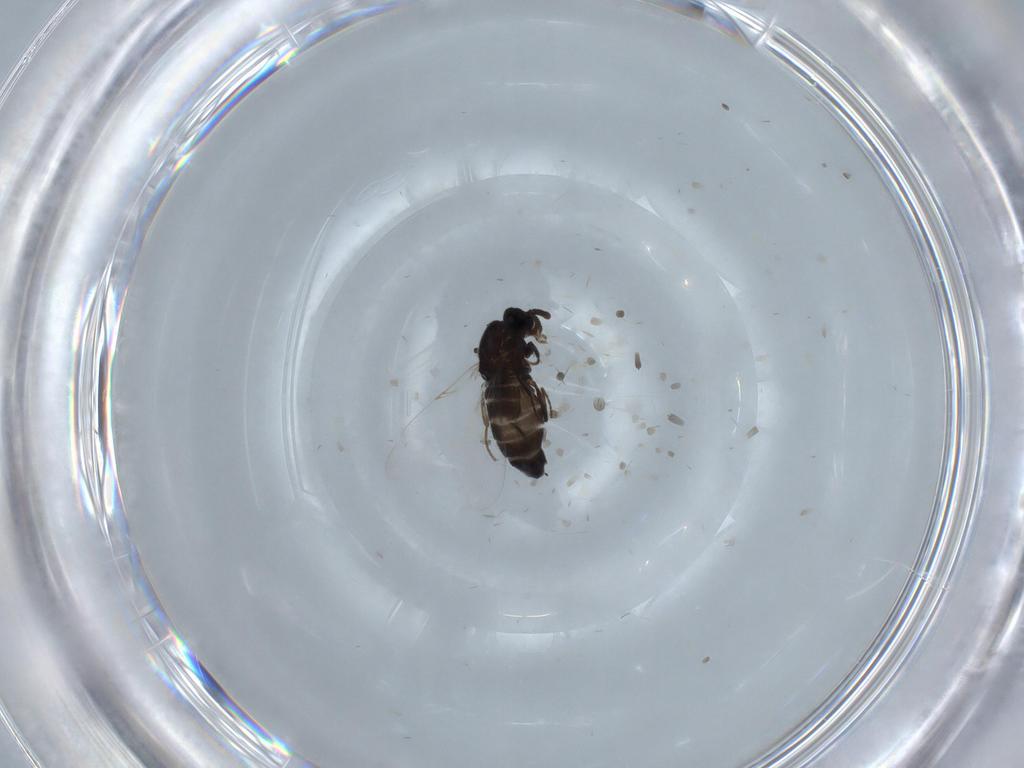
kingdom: Animalia
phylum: Arthropoda
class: Insecta
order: Diptera
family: Scatopsidae
